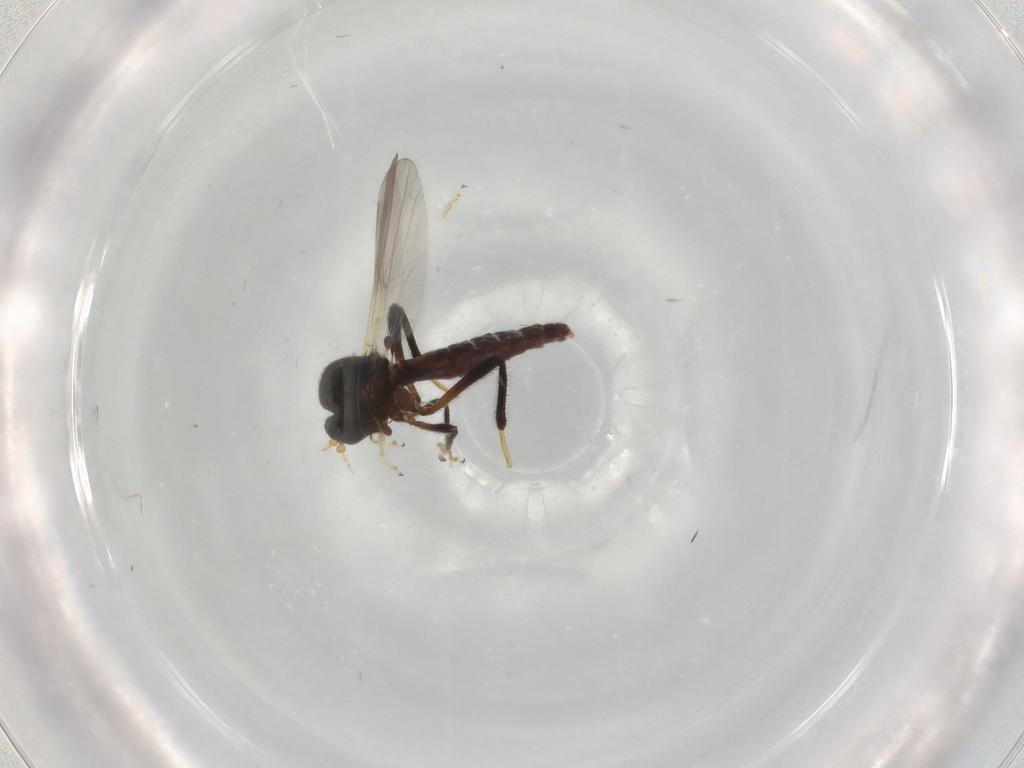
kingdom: Animalia
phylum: Arthropoda
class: Insecta
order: Diptera
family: Ceratopogonidae
